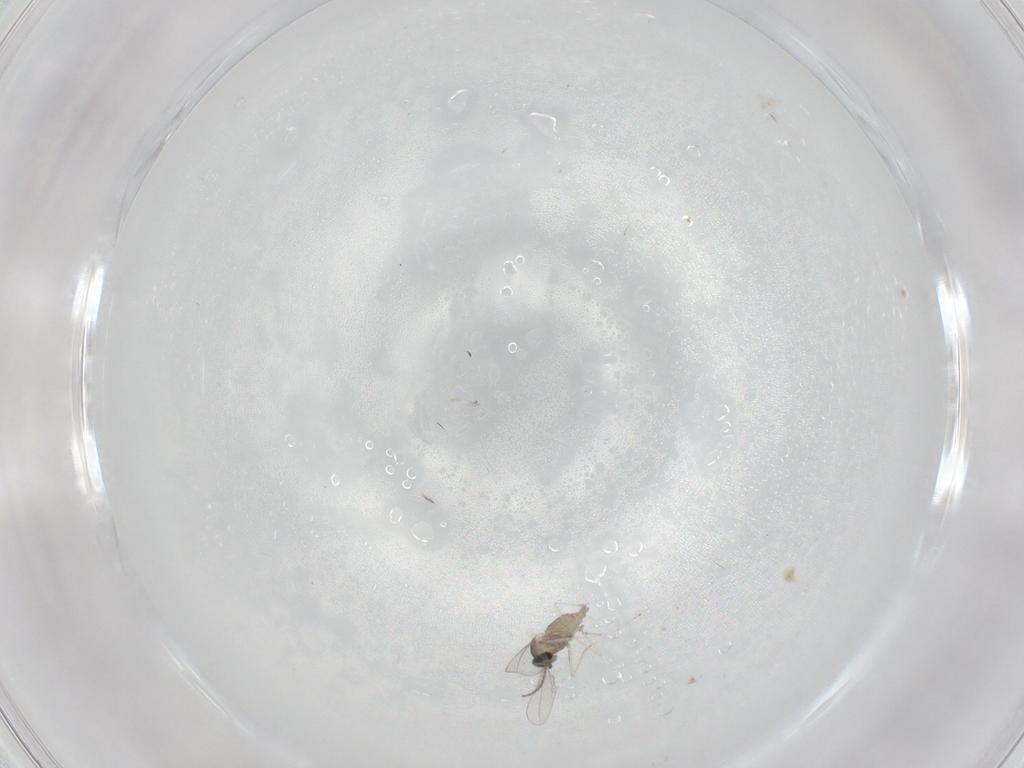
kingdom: Animalia
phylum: Arthropoda
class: Insecta
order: Diptera
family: Cecidomyiidae
